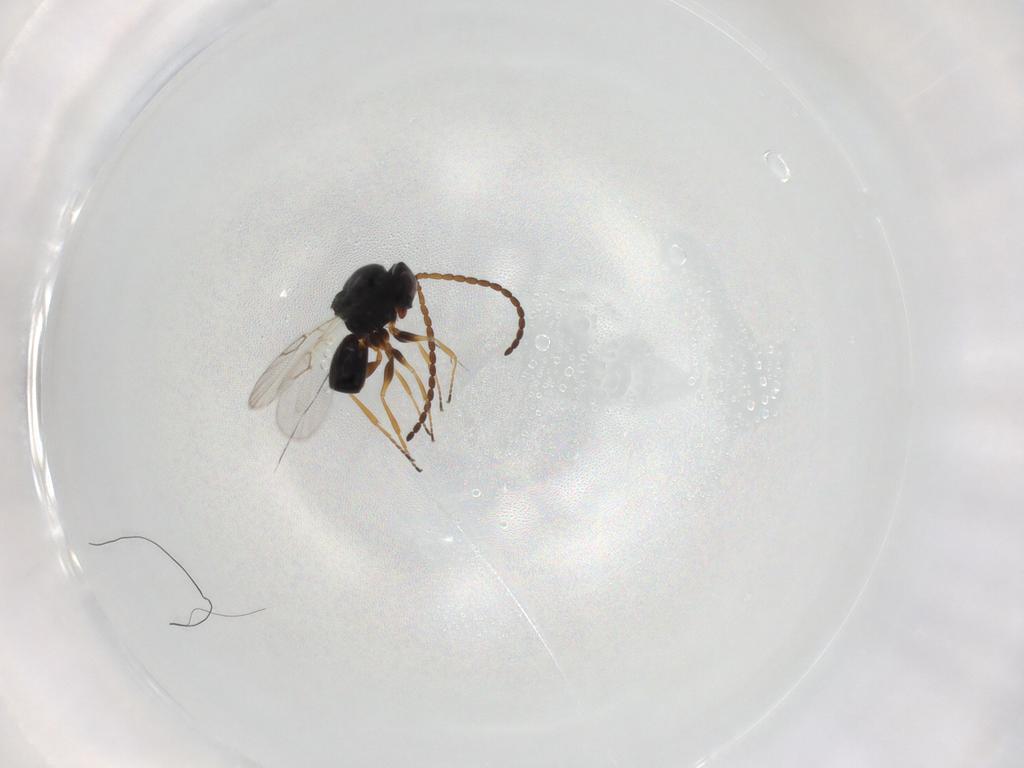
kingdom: Animalia
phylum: Arthropoda
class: Insecta
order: Hymenoptera
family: Figitidae
